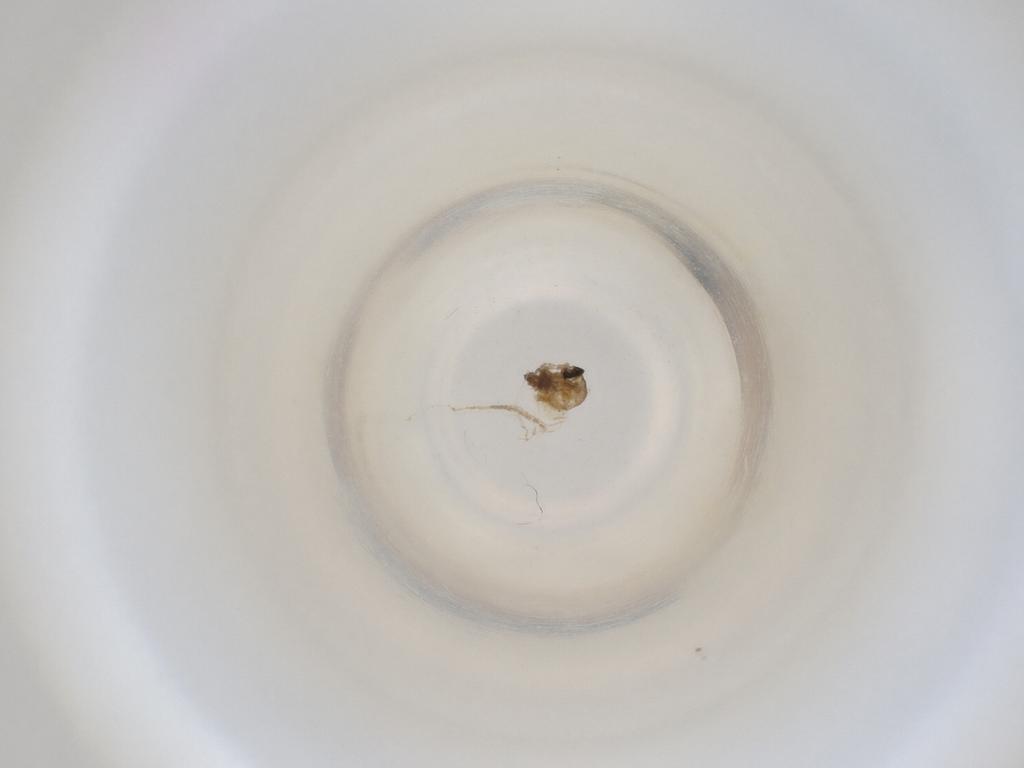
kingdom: Animalia
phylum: Arthropoda
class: Insecta
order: Diptera
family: Cecidomyiidae
